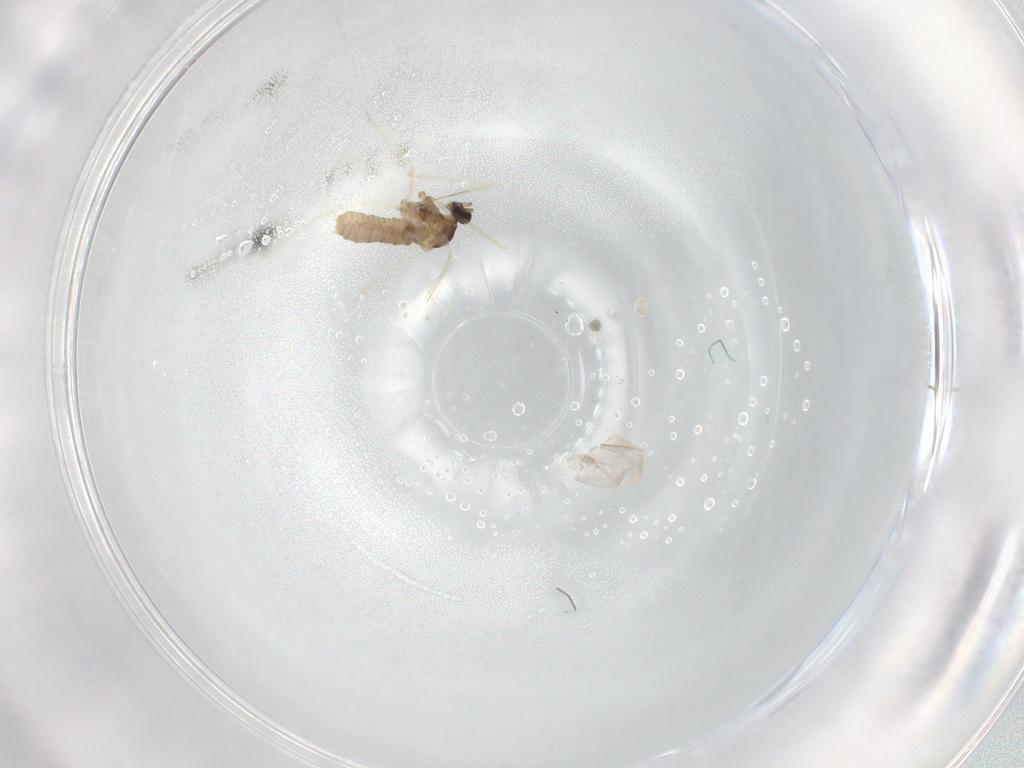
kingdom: Animalia
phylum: Arthropoda
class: Insecta
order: Diptera
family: Cecidomyiidae
